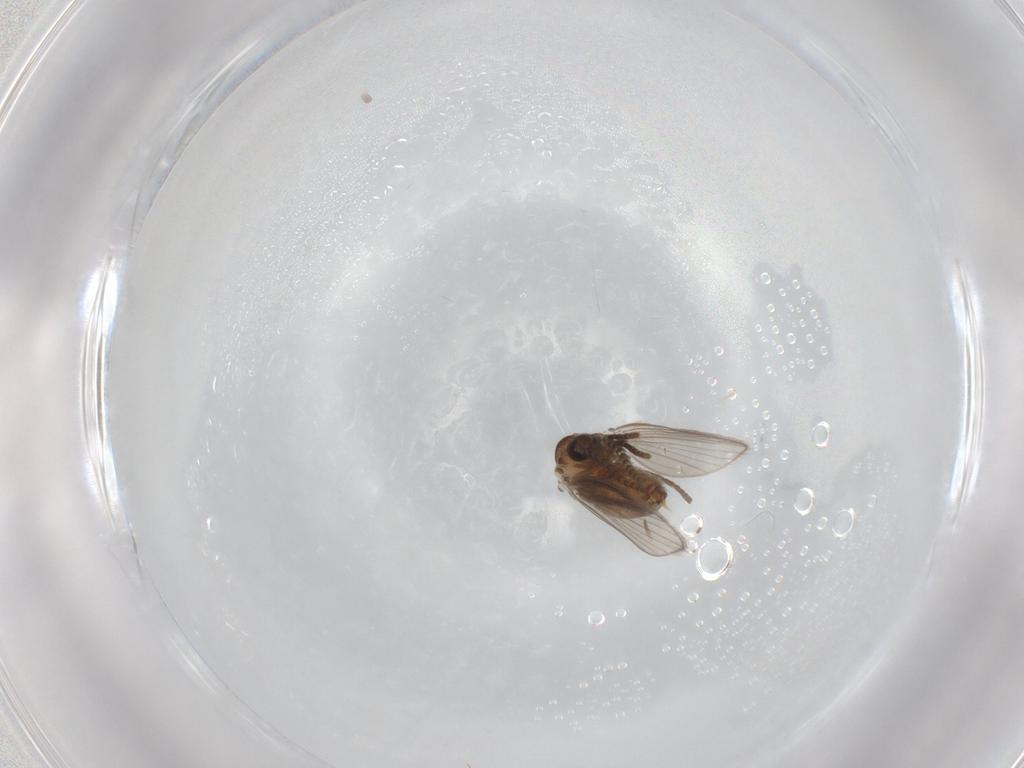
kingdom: Animalia
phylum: Arthropoda
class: Insecta
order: Diptera
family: Psychodidae
